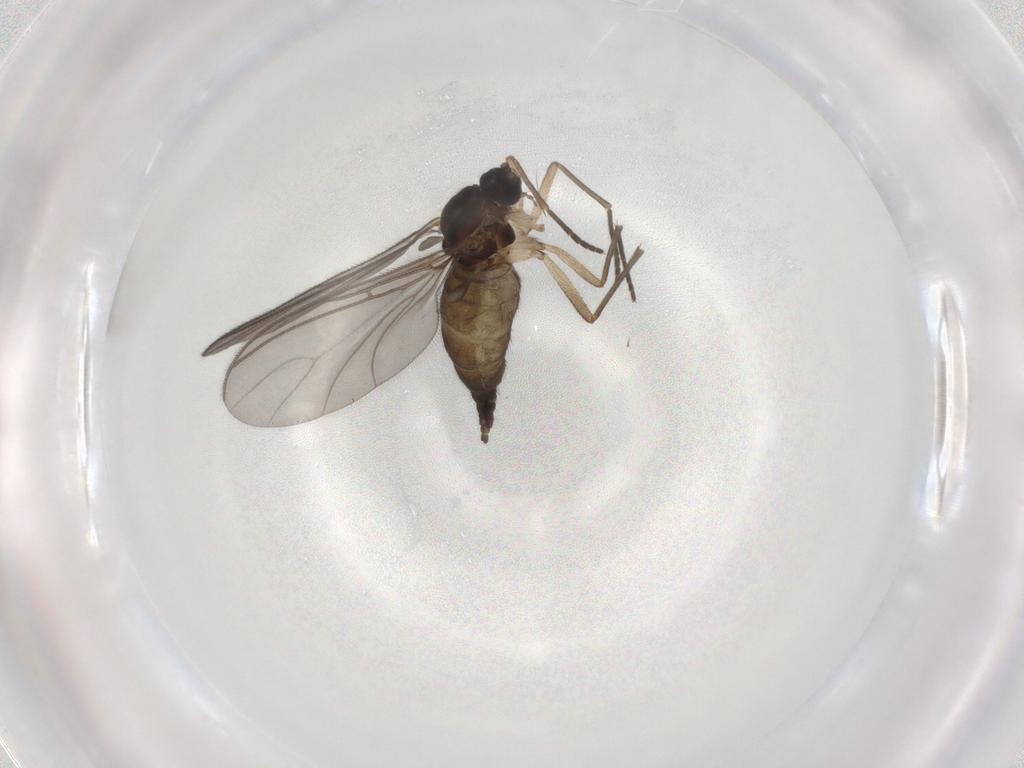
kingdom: Animalia
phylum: Arthropoda
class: Insecta
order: Diptera
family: Sciaridae
